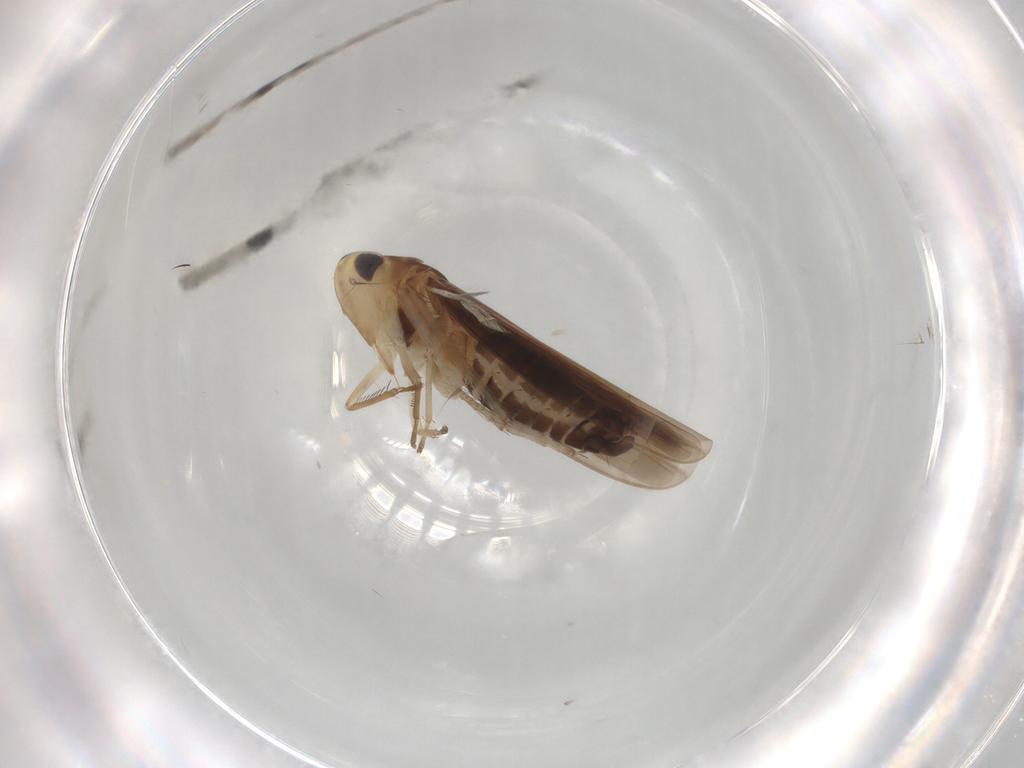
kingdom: Animalia
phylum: Arthropoda
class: Insecta
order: Hemiptera
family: Cicadellidae
